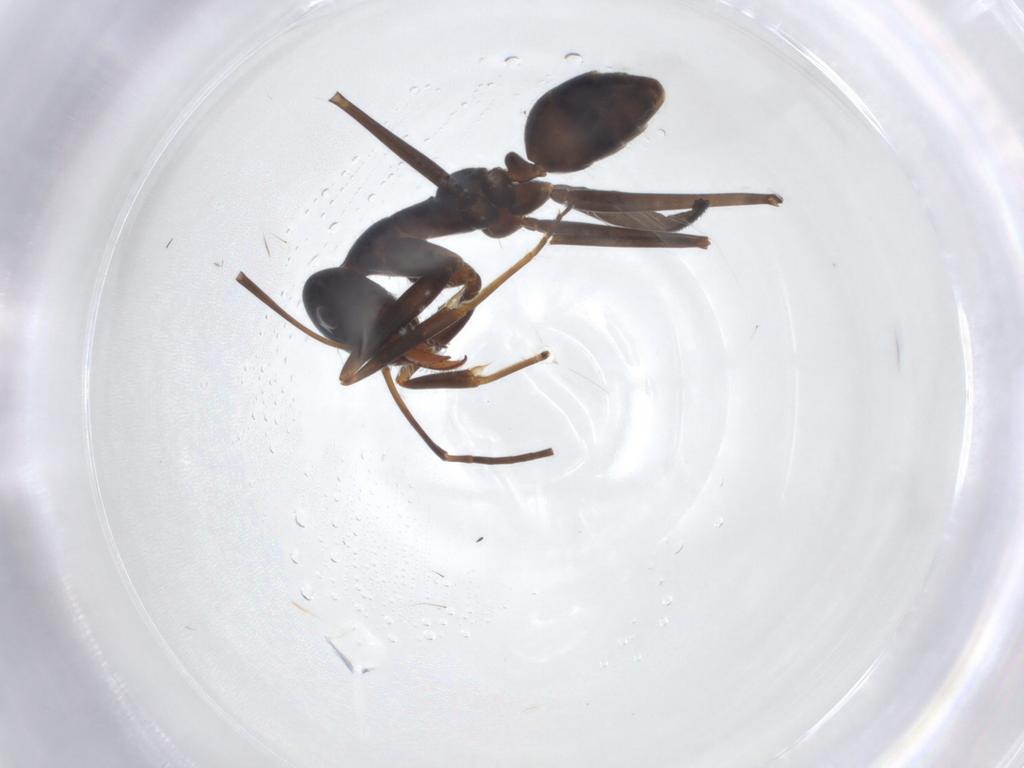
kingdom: Animalia
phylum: Arthropoda
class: Insecta
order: Hymenoptera
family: Formicidae
